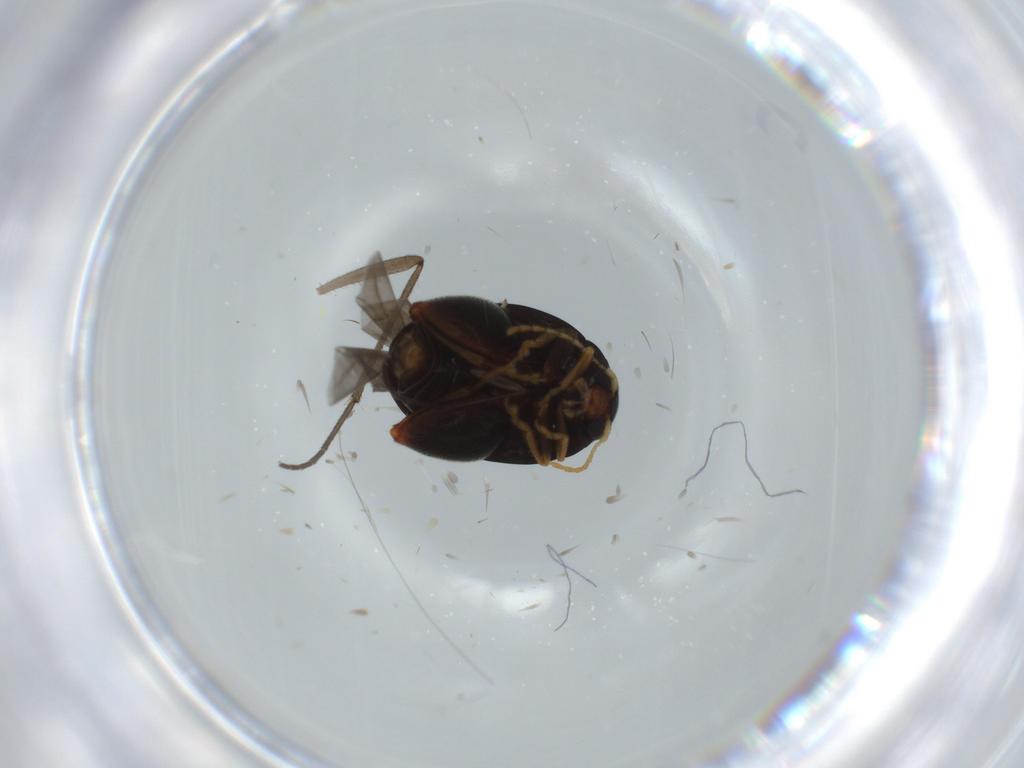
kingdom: Animalia
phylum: Arthropoda
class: Insecta
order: Coleoptera
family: Chrysomelidae
